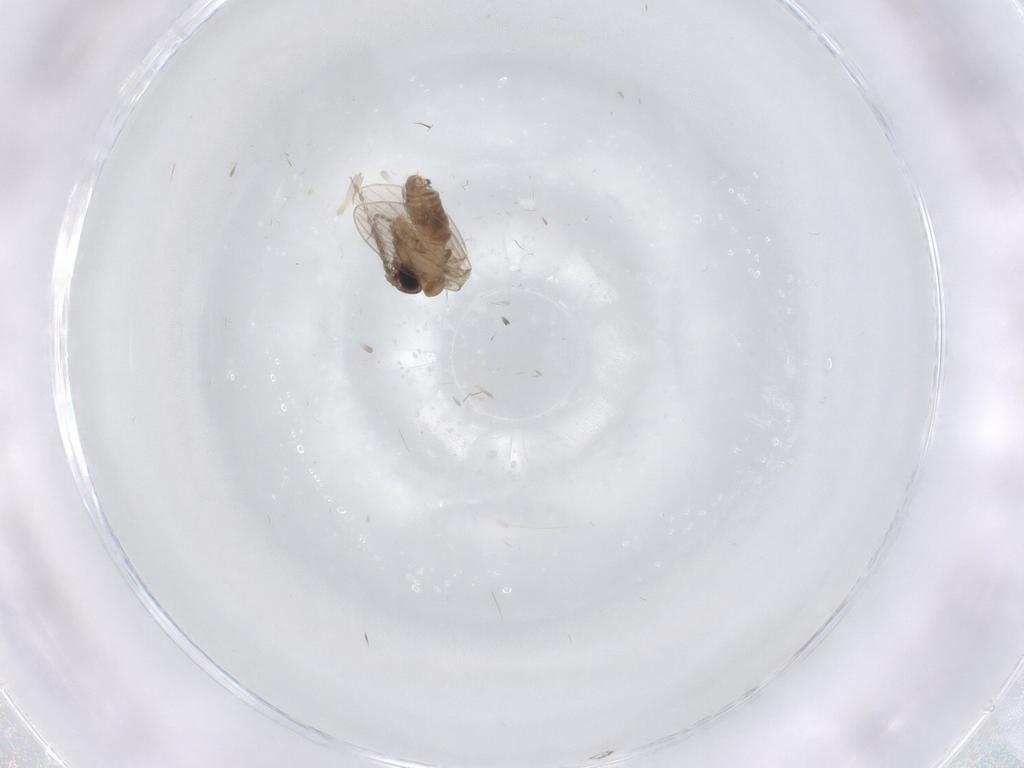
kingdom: Animalia
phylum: Arthropoda
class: Insecta
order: Diptera
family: Psychodidae
